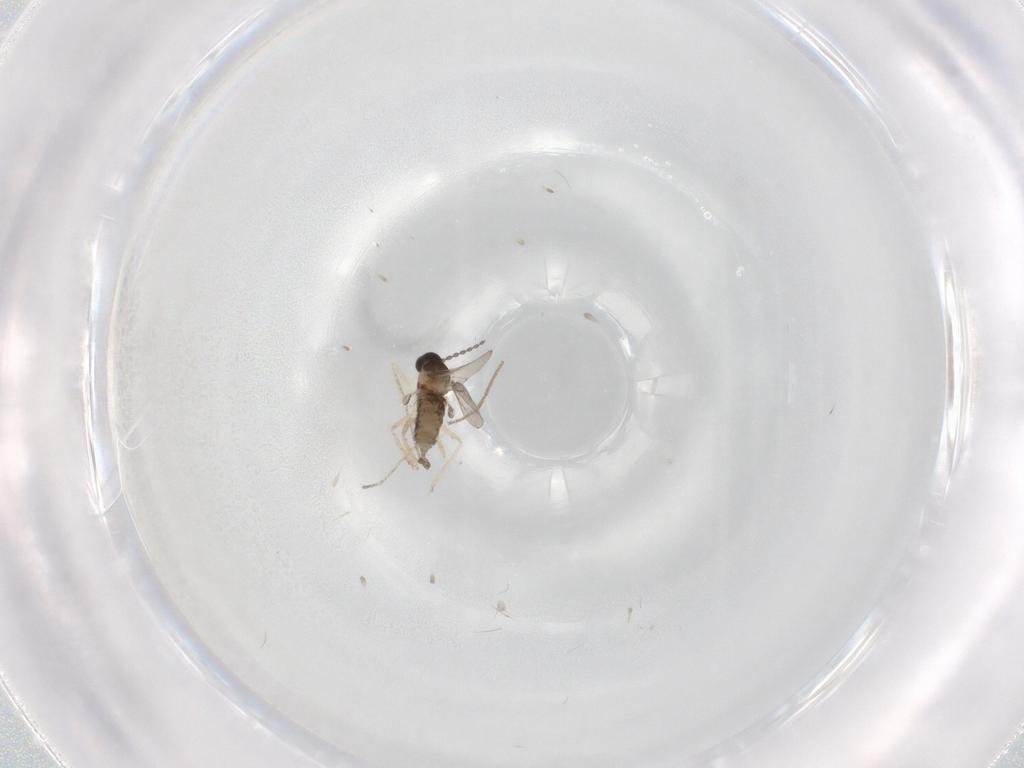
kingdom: Animalia
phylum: Arthropoda
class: Insecta
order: Diptera
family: Chironomidae
